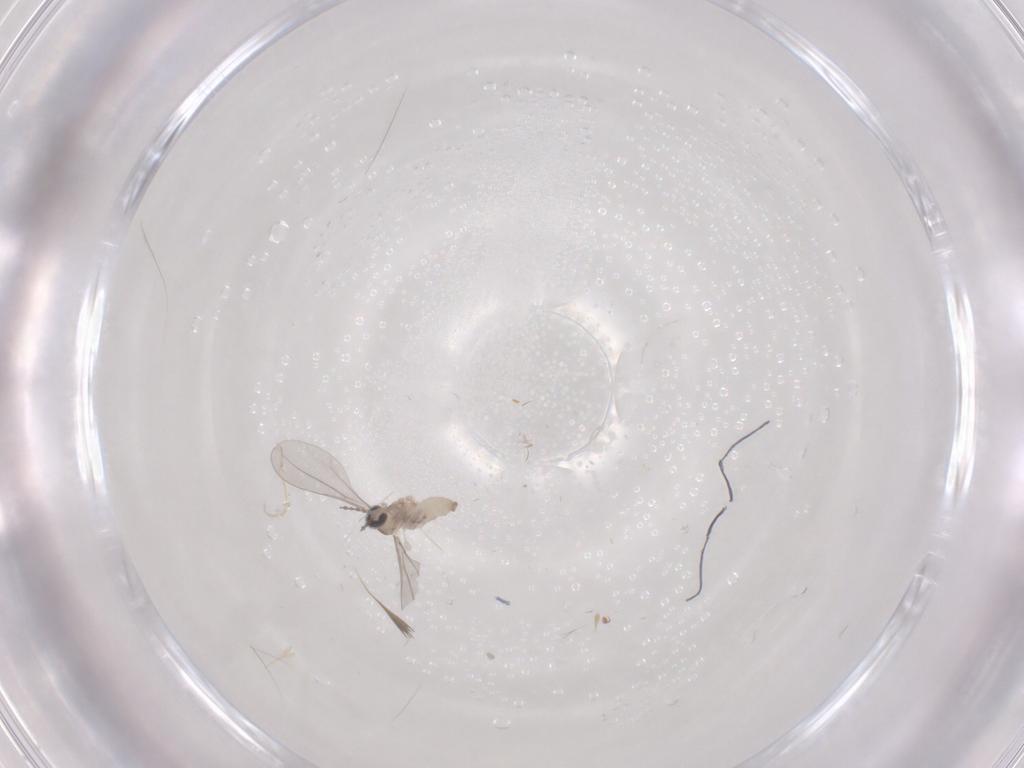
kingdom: Animalia
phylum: Arthropoda
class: Insecta
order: Diptera
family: Cecidomyiidae
